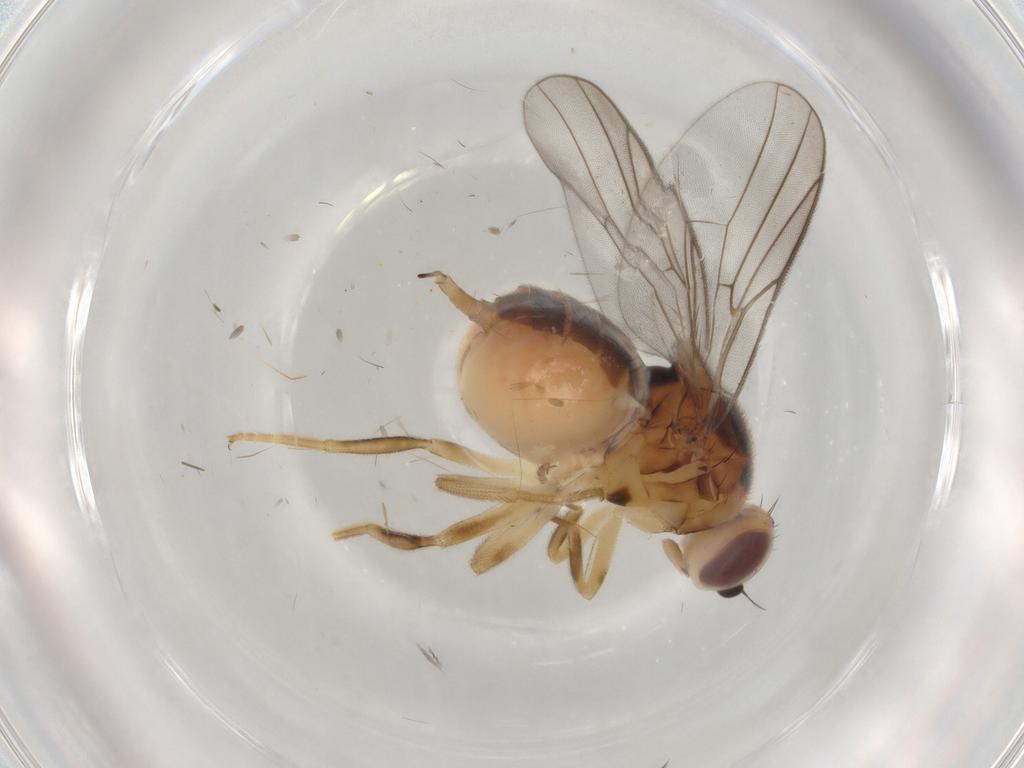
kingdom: Animalia
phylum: Arthropoda
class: Insecta
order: Diptera
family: Chloropidae
